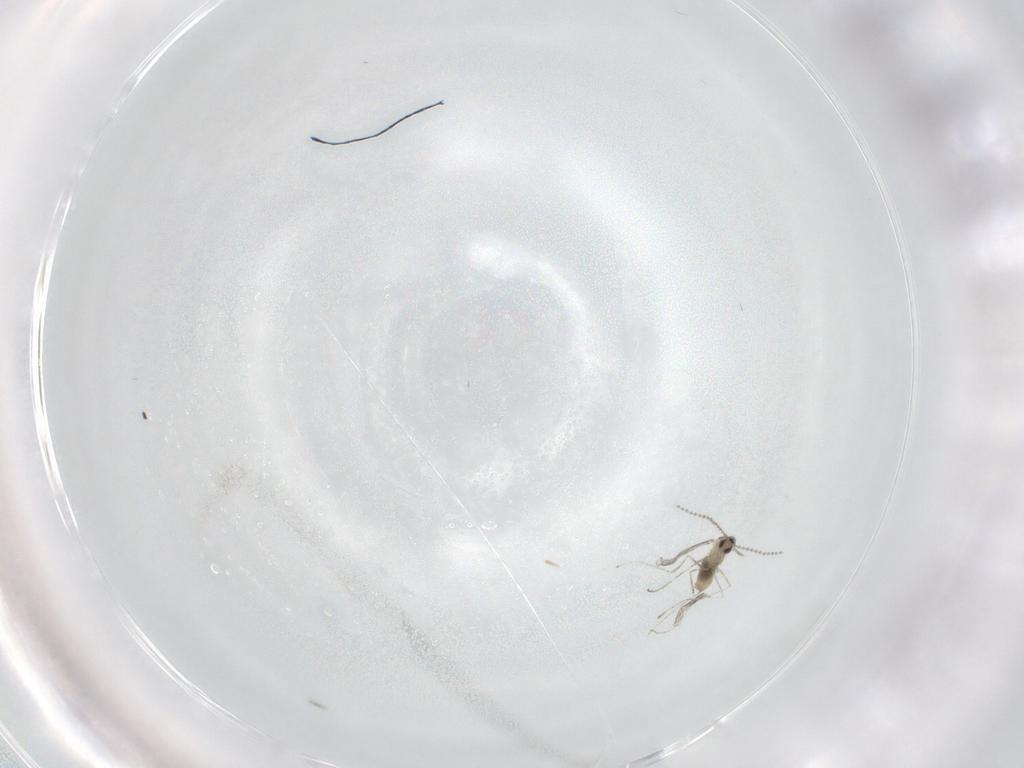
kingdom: Animalia
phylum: Arthropoda
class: Insecta
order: Diptera
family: Cecidomyiidae
